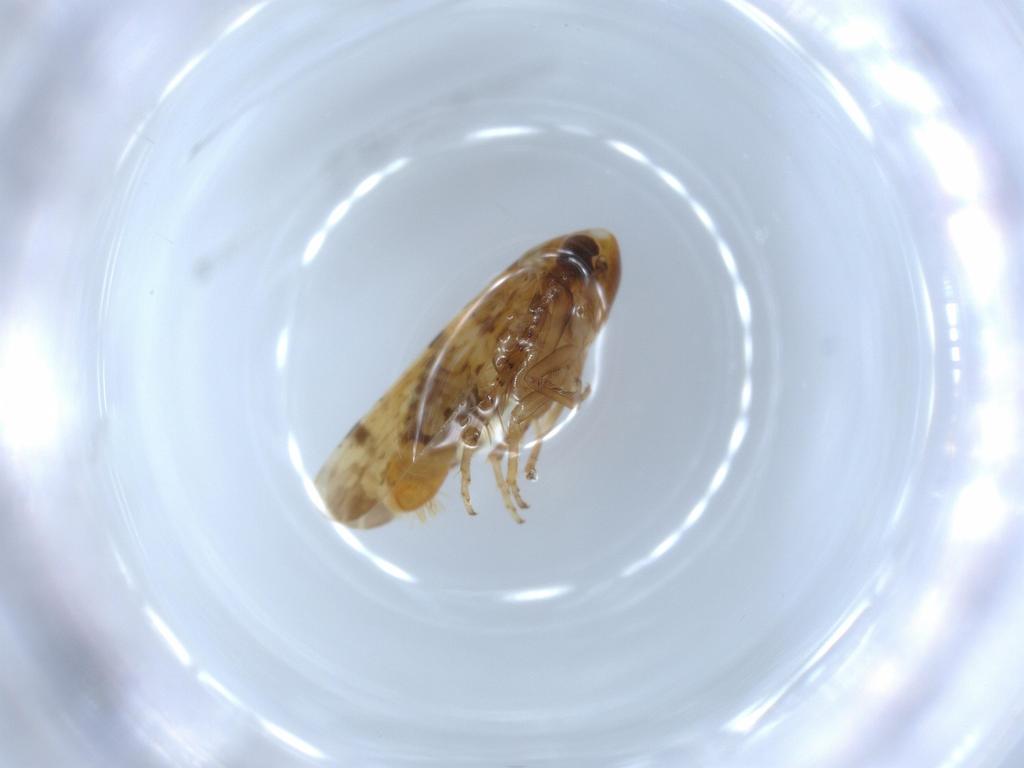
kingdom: Animalia
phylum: Arthropoda
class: Insecta
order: Hemiptera
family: Cicadellidae
